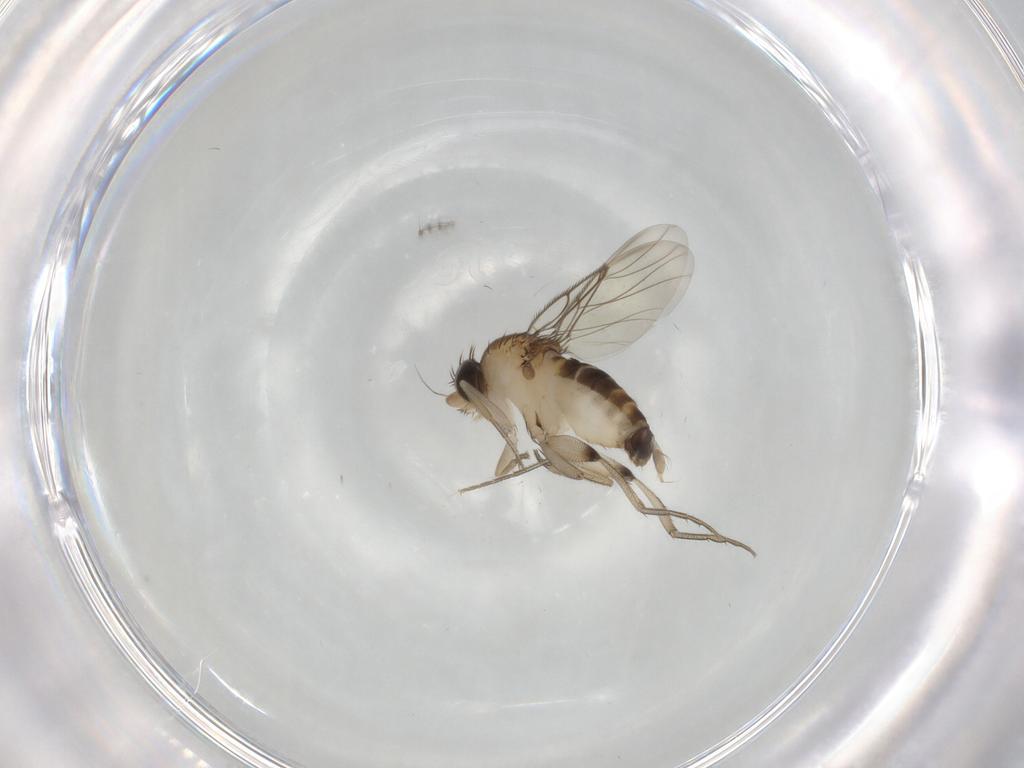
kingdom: Animalia
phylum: Arthropoda
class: Insecta
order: Diptera
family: Phoridae
